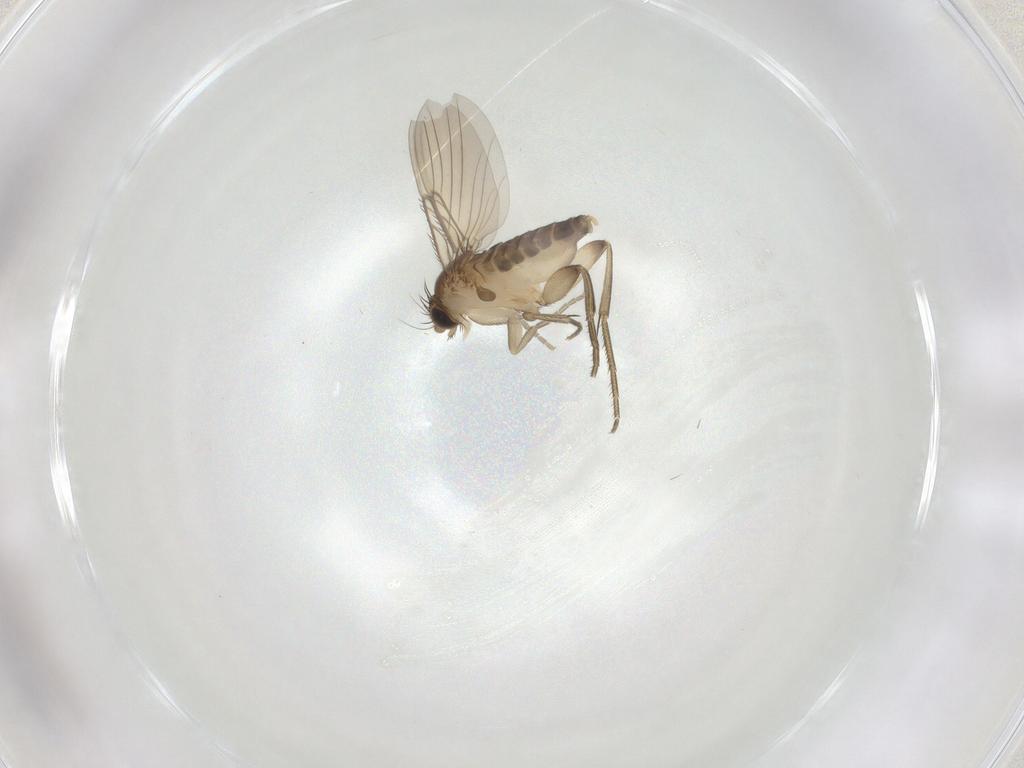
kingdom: Animalia
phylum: Arthropoda
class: Insecta
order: Diptera
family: Phoridae
